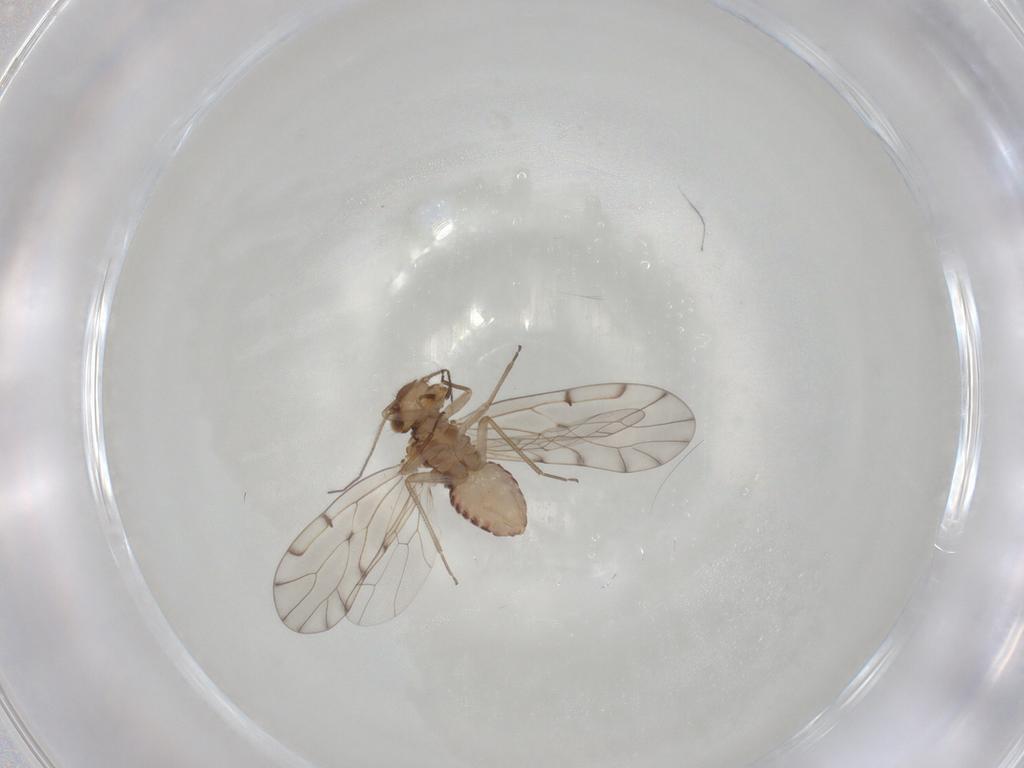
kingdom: Animalia
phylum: Arthropoda
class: Insecta
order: Psocodea
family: Ectopsocidae
